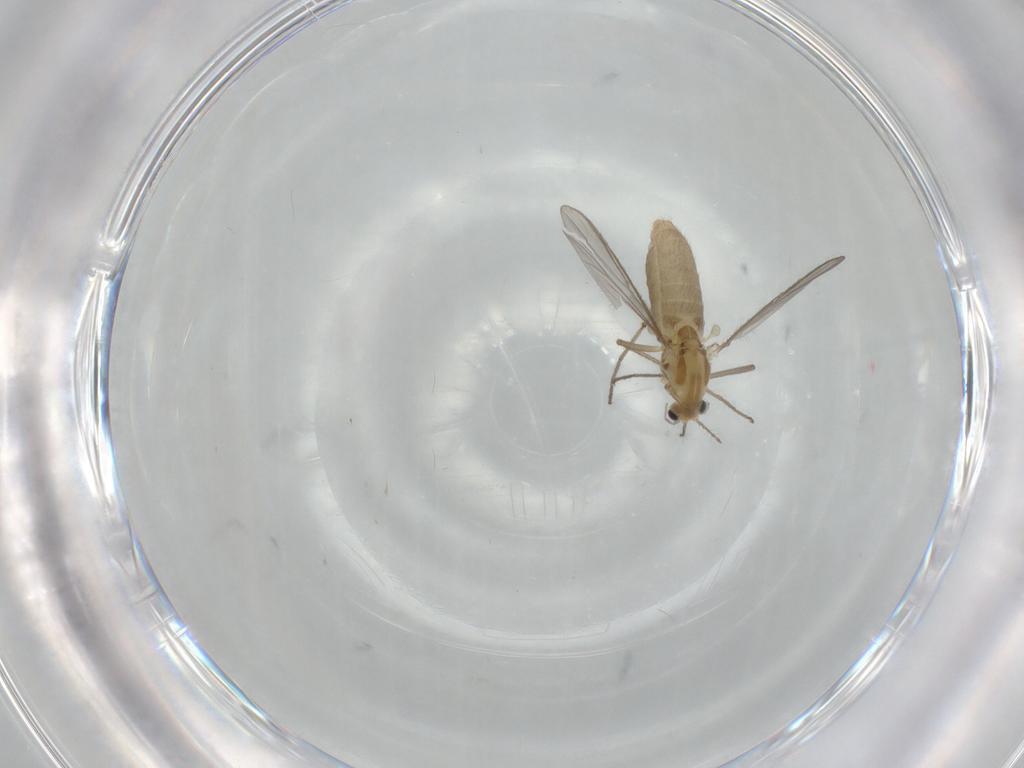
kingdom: Animalia
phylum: Arthropoda
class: Insecta
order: Diptera
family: Chironomidae
